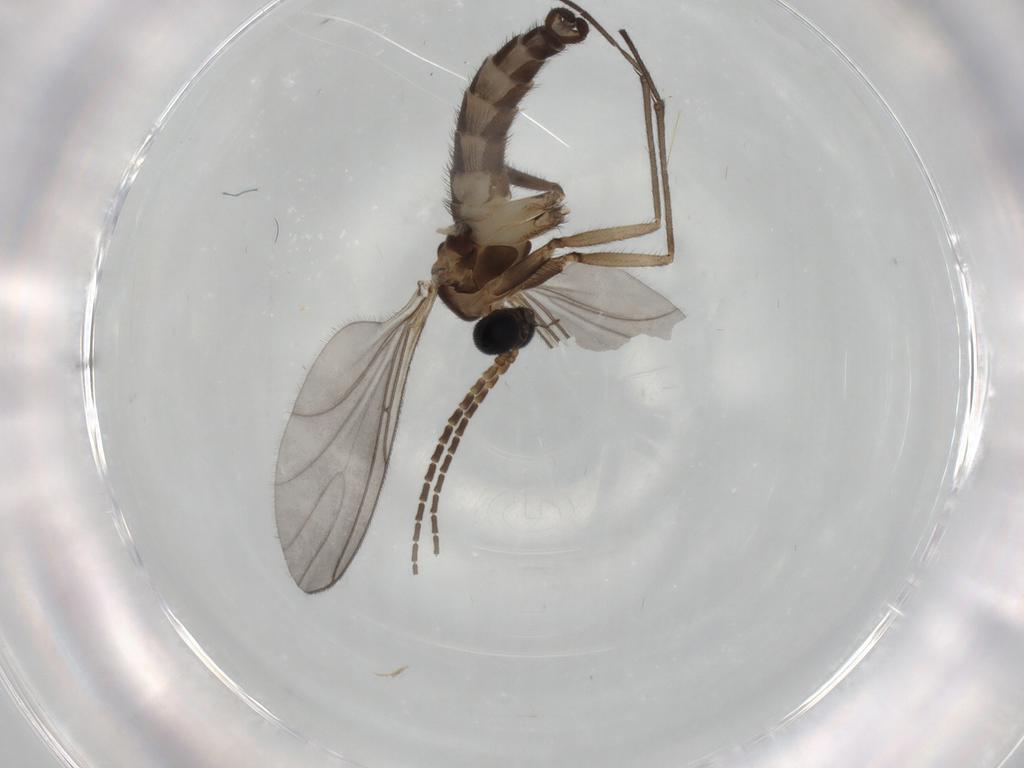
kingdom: Animalia
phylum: Arthropoda
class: Insecta
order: Diptera
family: Sciaridae
